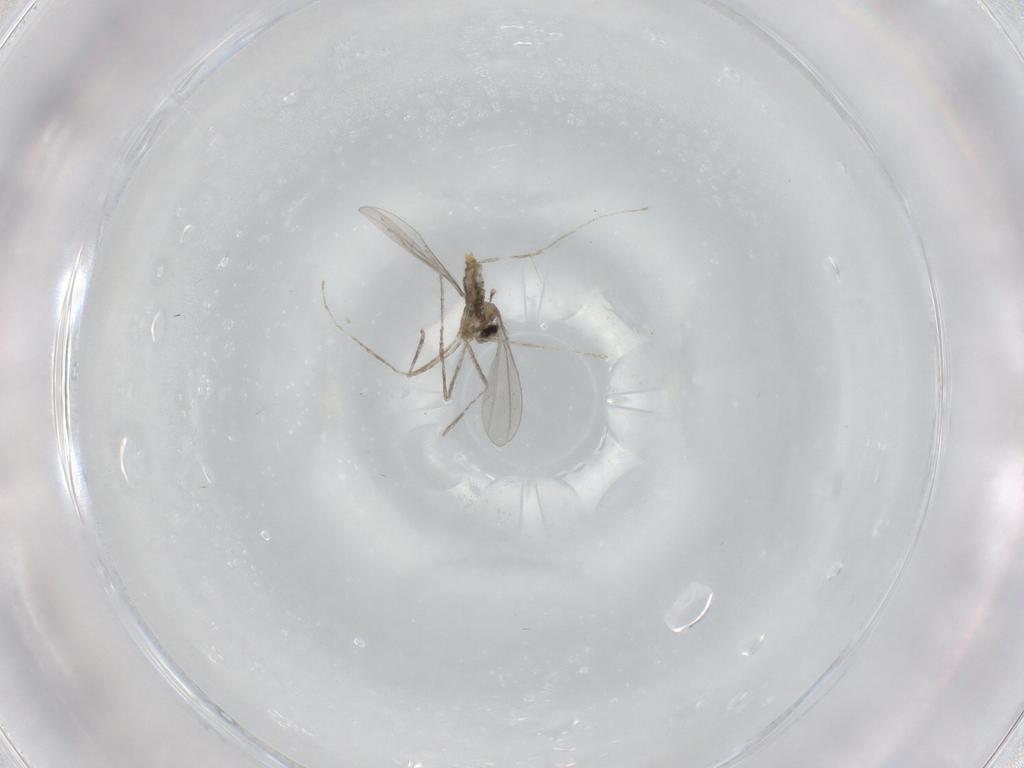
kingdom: Animalia
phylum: Arthropoda
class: Insecta
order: Diptera
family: Cecidomyiidae
